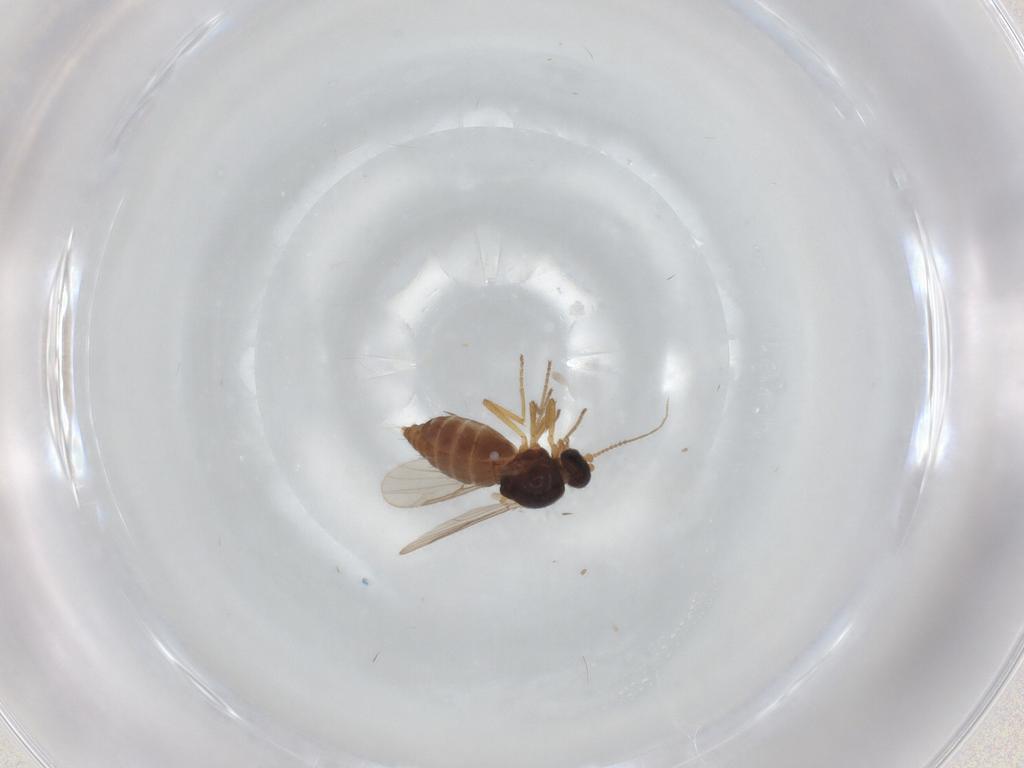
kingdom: Animalia
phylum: Arthropoda
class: Insecta
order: Diptera
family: Ceratopogonidae
